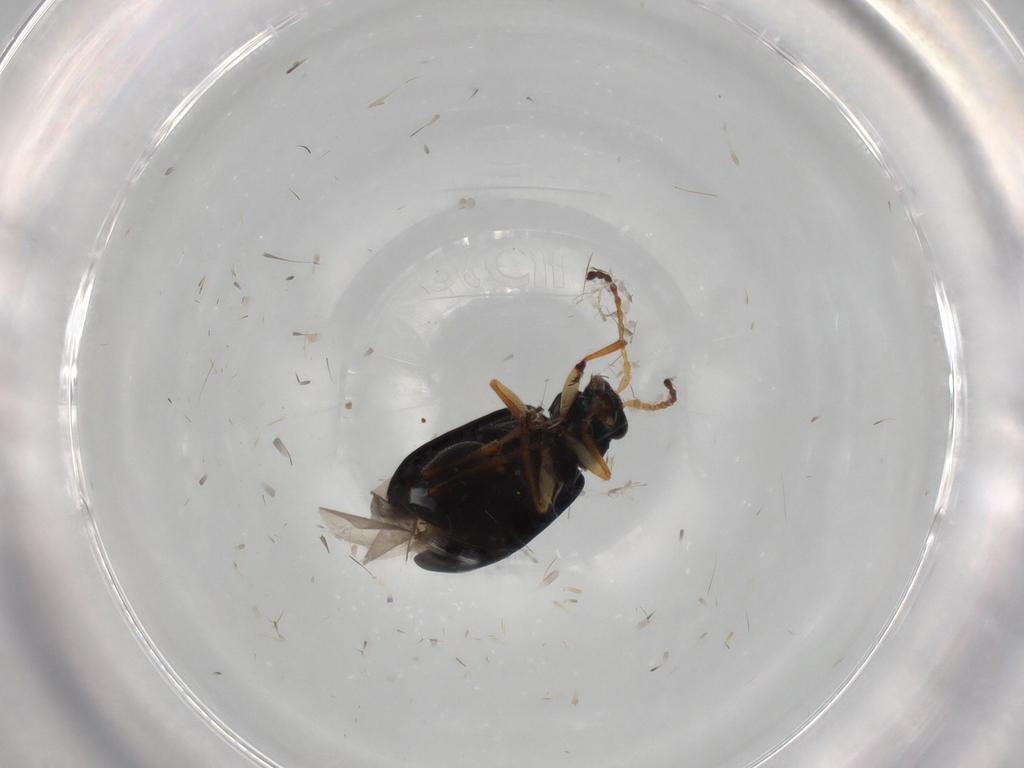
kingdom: Animalia
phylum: Arthropoda
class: Insecta
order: Coleoptera
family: Chrysomelidae
